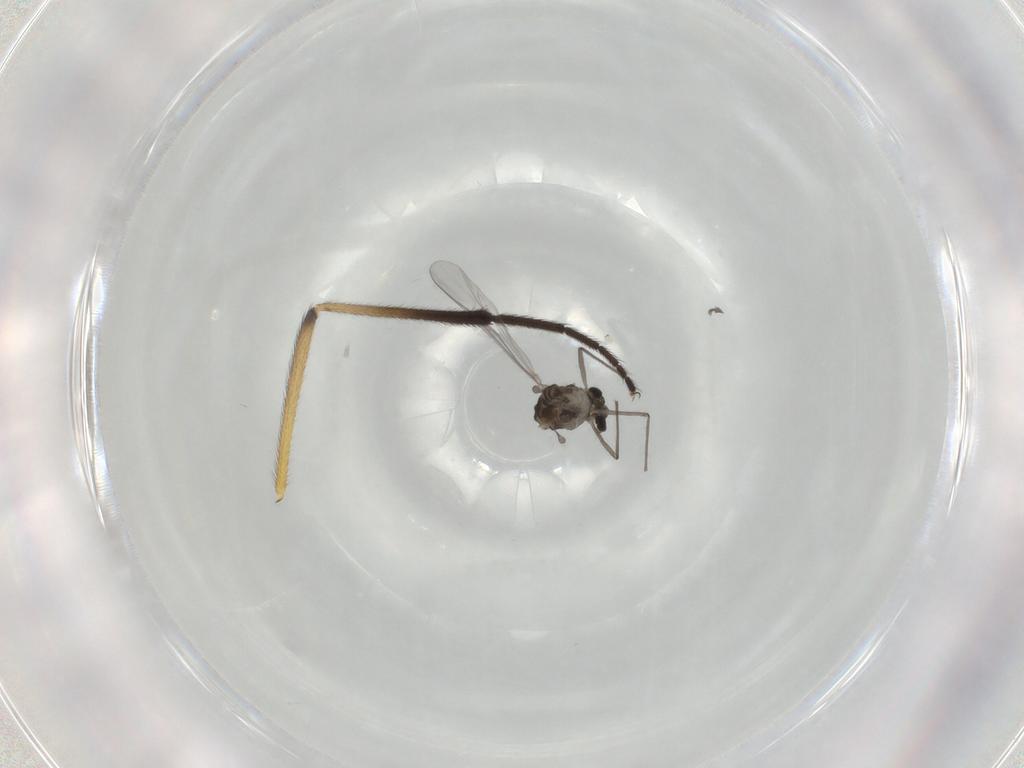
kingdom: Animalia
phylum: Arthropoda
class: Insecta
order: Diptera
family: Chironomidae
